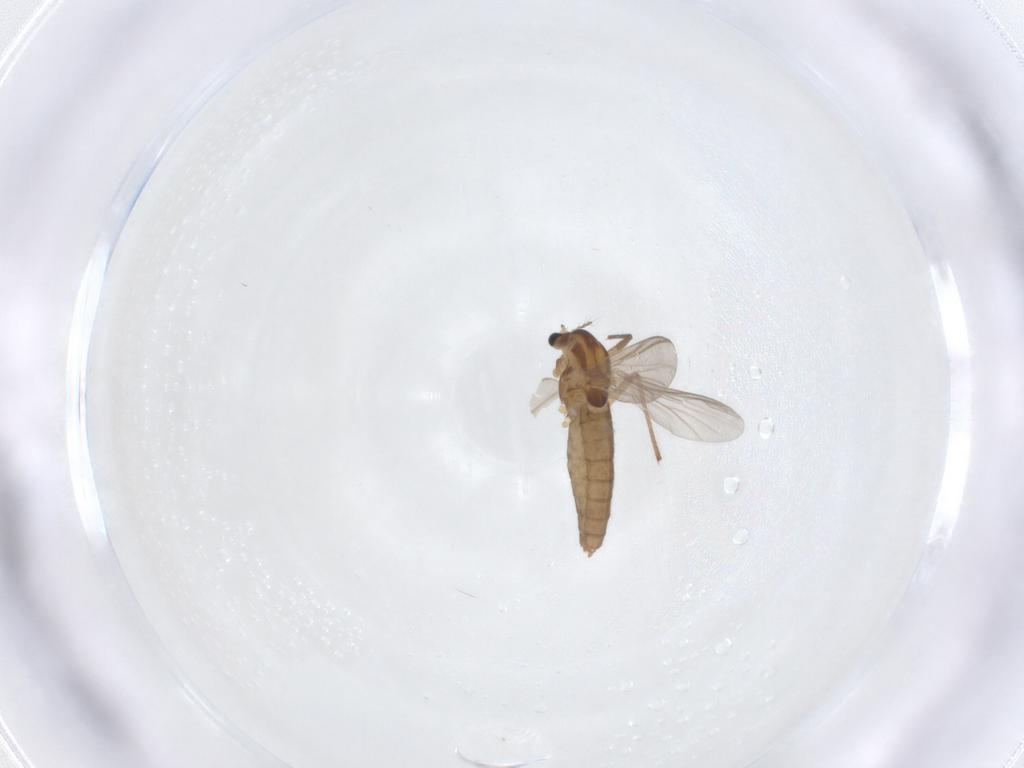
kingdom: Animalia
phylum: Arthropoda
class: Insecta
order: Diptera
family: Chironomidae
